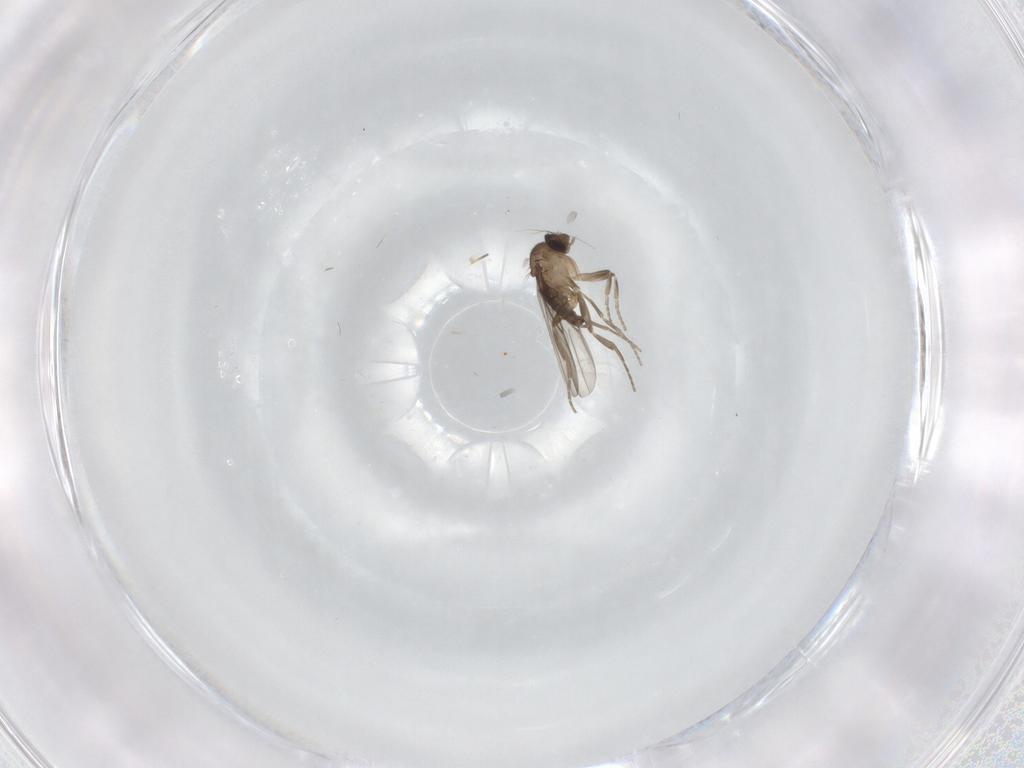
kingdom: Animalia
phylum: Arthropoda
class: Insecta
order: Diptera
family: Phoridae
